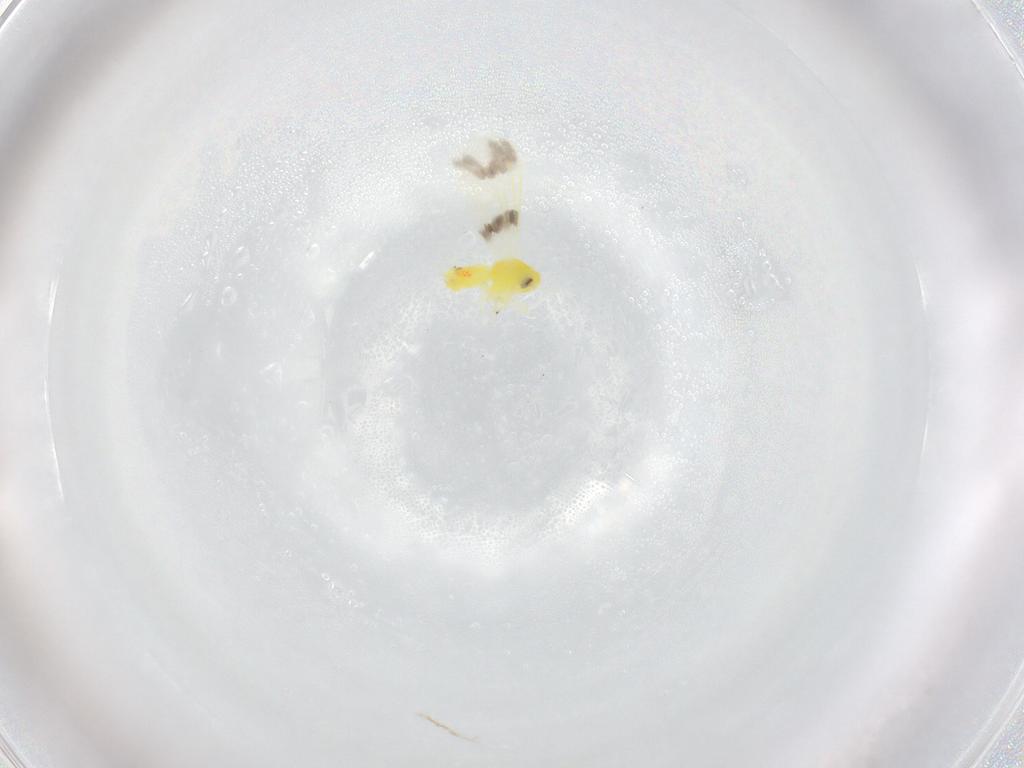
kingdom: Animalia
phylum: Arthropoda
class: Insecta
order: Hemiptera
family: Aleyrodidae
